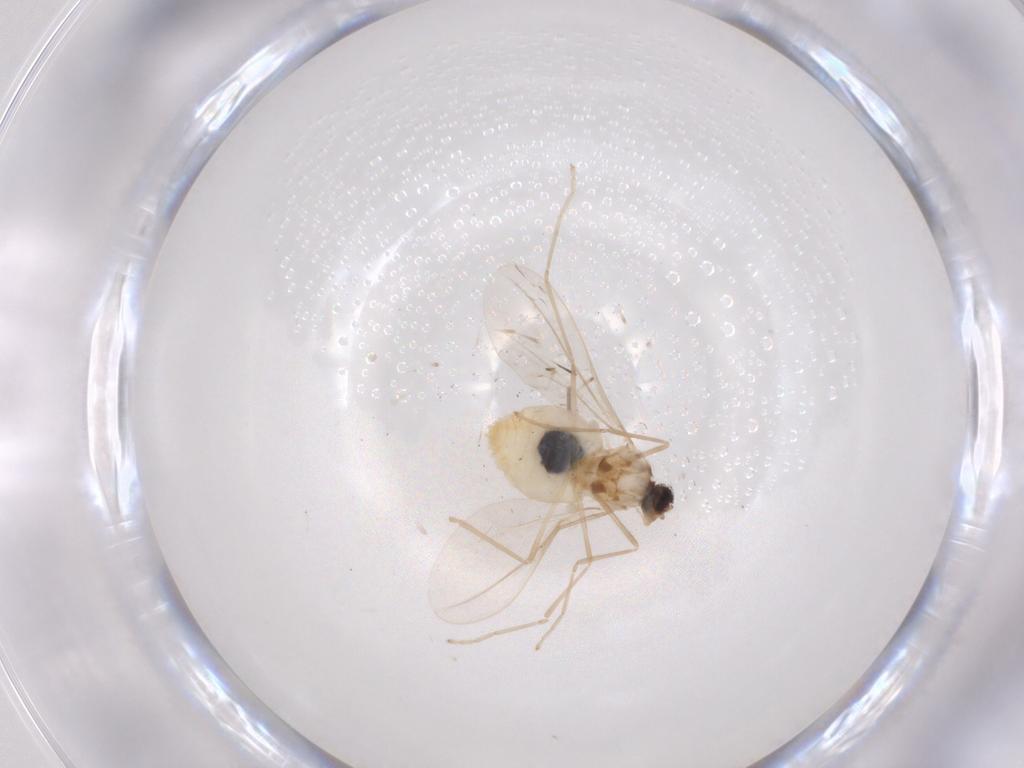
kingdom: Animalia
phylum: Arthropoda
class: Insecta
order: Diptera
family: Cecidomyiidae
